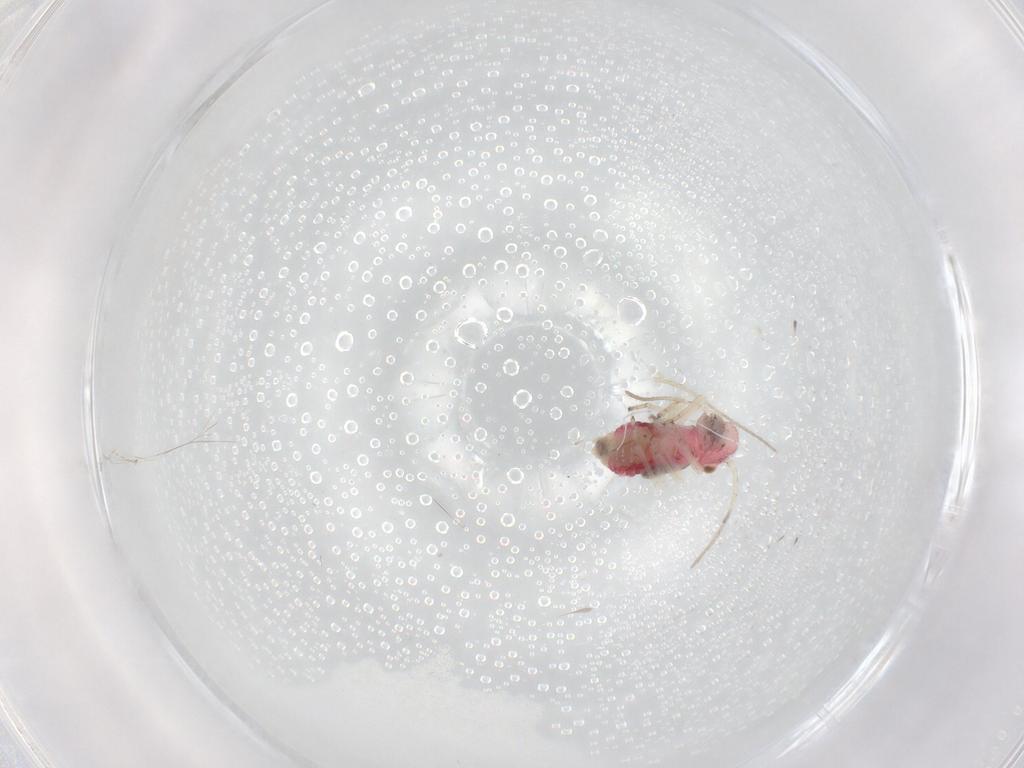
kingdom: Animalia
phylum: Arthropoda
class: Insecta
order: Psocodea
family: Caeciliusidae
